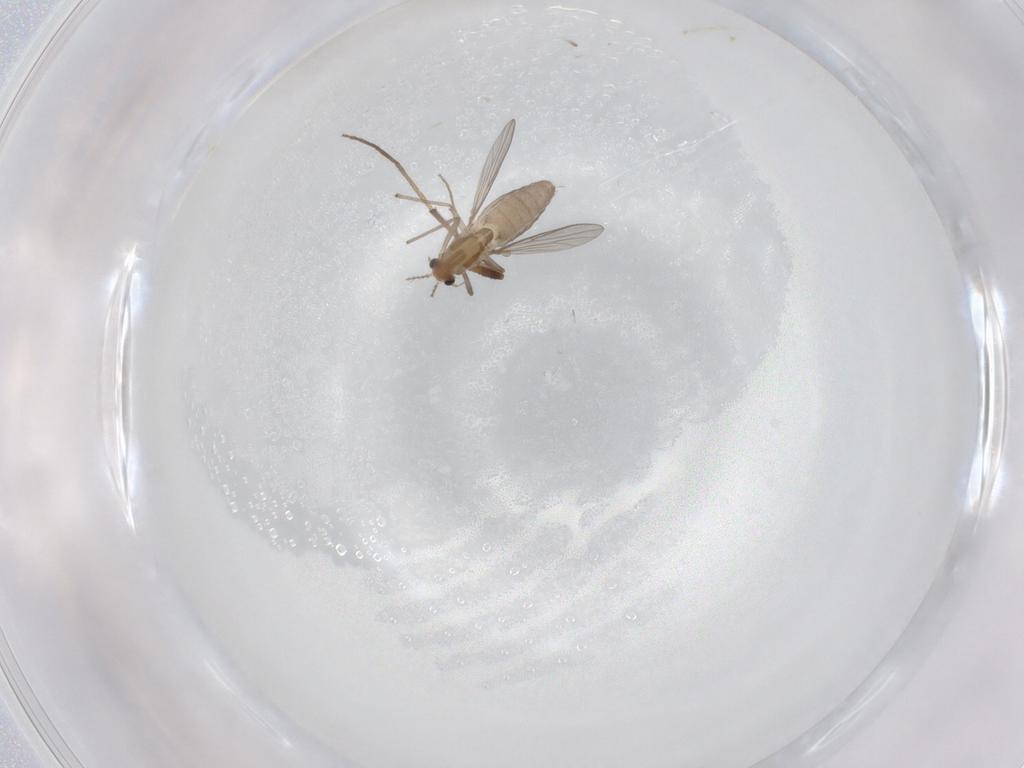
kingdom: Animalia
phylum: Arthropoda
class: Insecta
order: Diptera
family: Chironomidae
